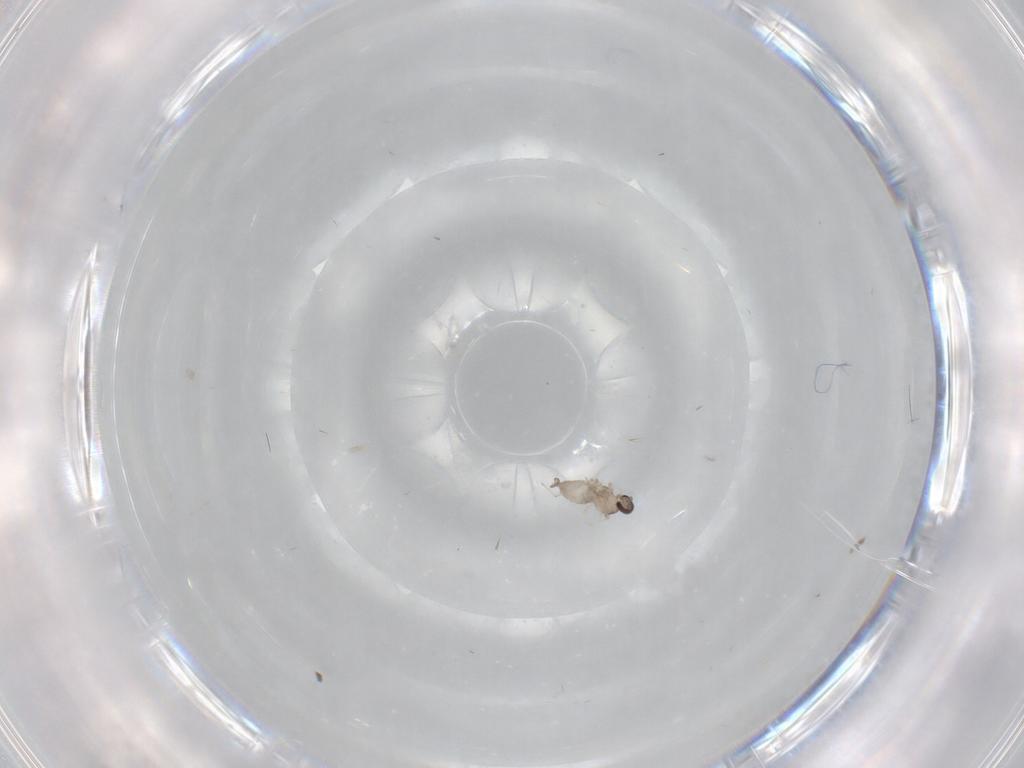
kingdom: Animalia
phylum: Arthropoda
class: Insecta
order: Diptera
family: Cecidomyiidae
